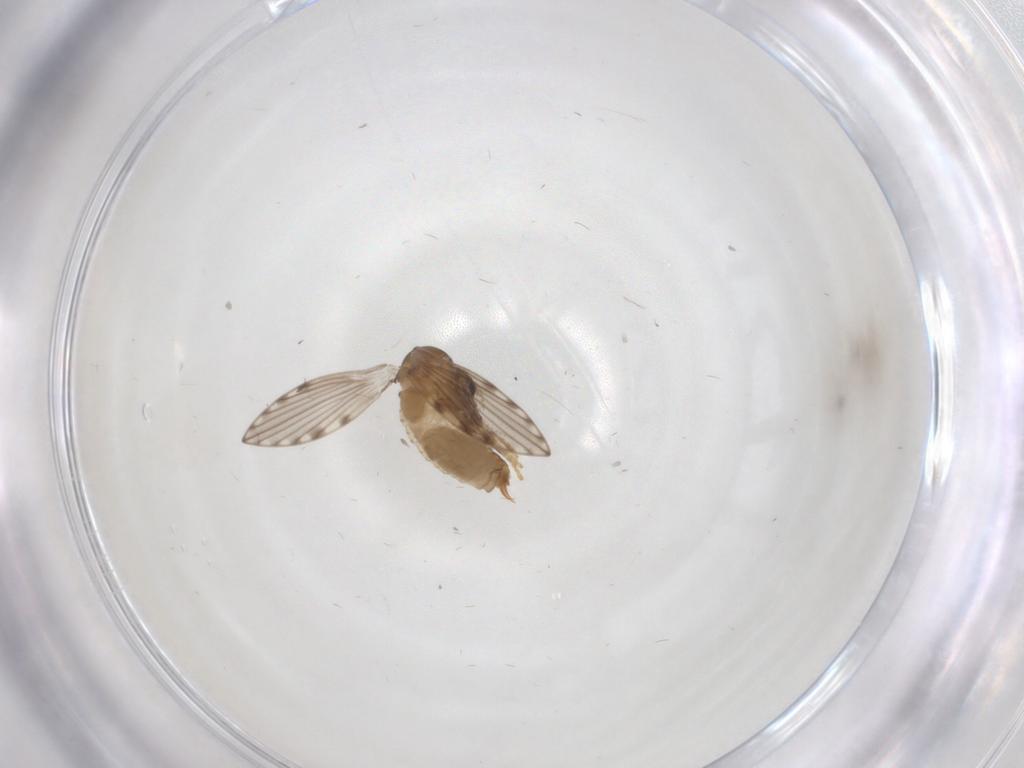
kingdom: Animalia
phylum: Arthropoda
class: Insecta
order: Diptera
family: Psychodidae
